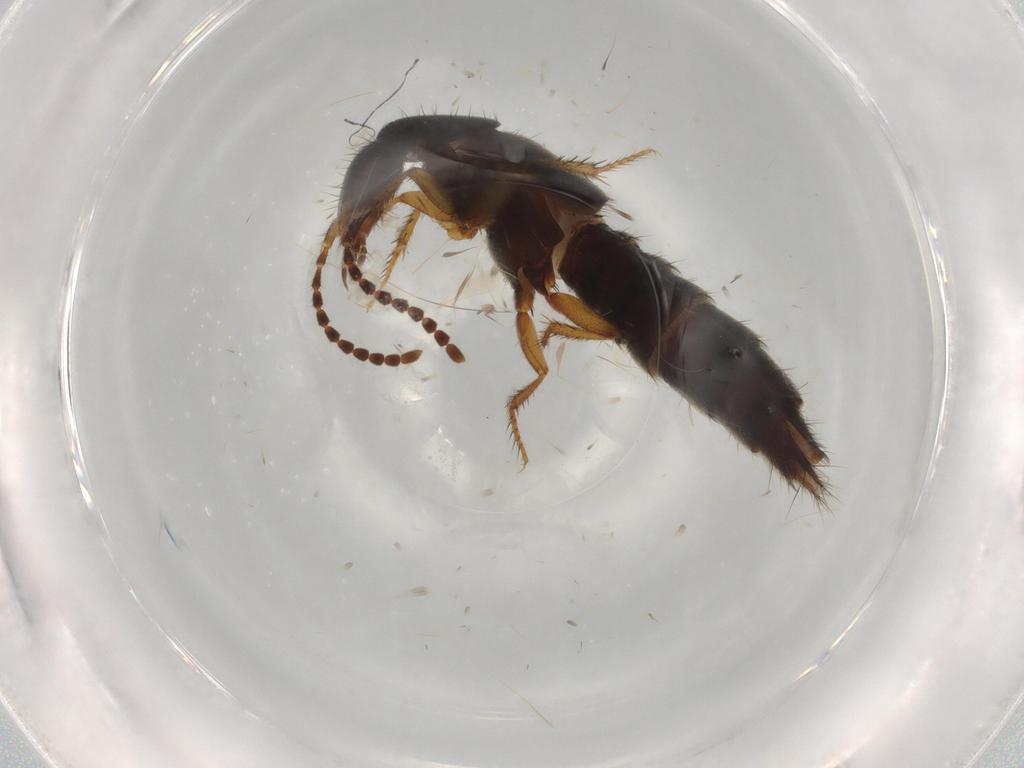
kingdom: Animalia
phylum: Arthropoda
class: Insecta
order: Coleoptera
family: Staphylinidae
